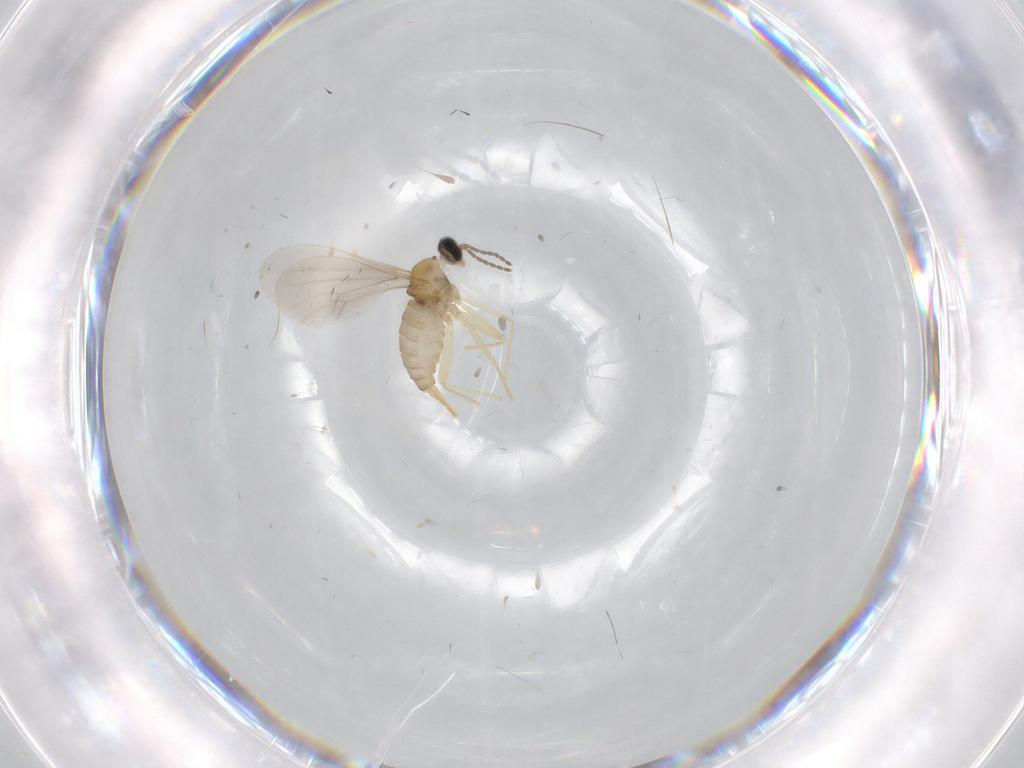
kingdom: Animalia
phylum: Arthropoda
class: Insecta
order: Diptera
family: Cecidomyiidae
